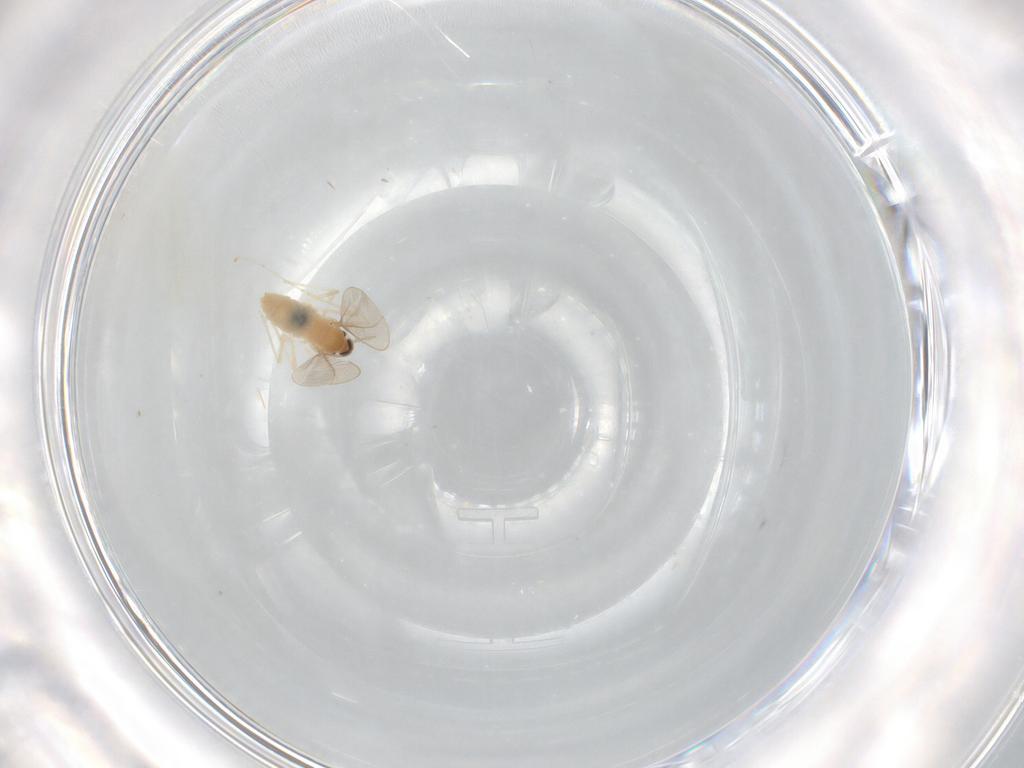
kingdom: Animalia
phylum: Arthropoda
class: Insecta
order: Diptera
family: Cecidomyiidae
